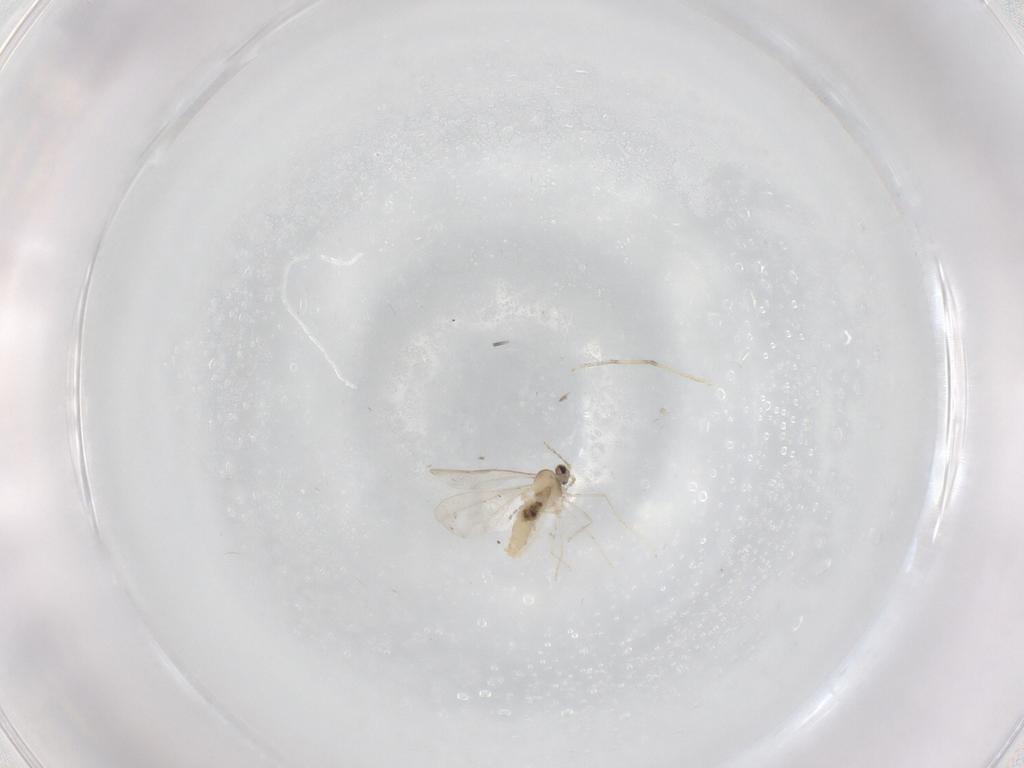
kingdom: Animalia
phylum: Arthropoda
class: Insecta
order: Diptera
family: Cecidomyiidae
